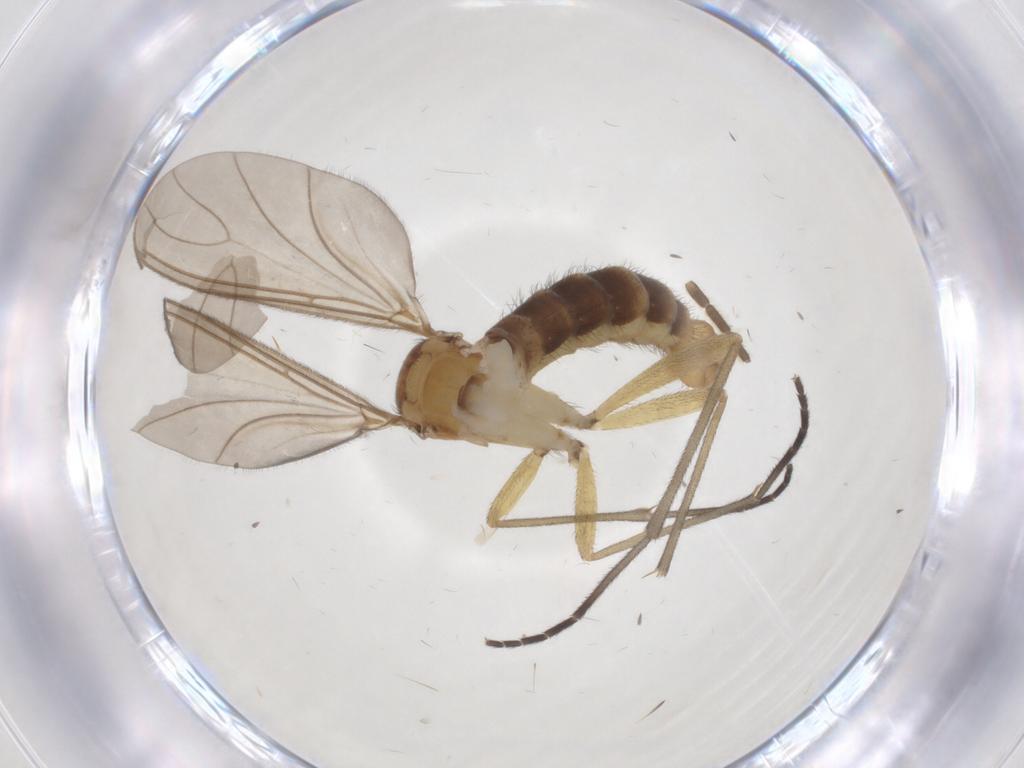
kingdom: Animalia
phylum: Arthropoda
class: Insecta
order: Diptera
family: Sciaridae
